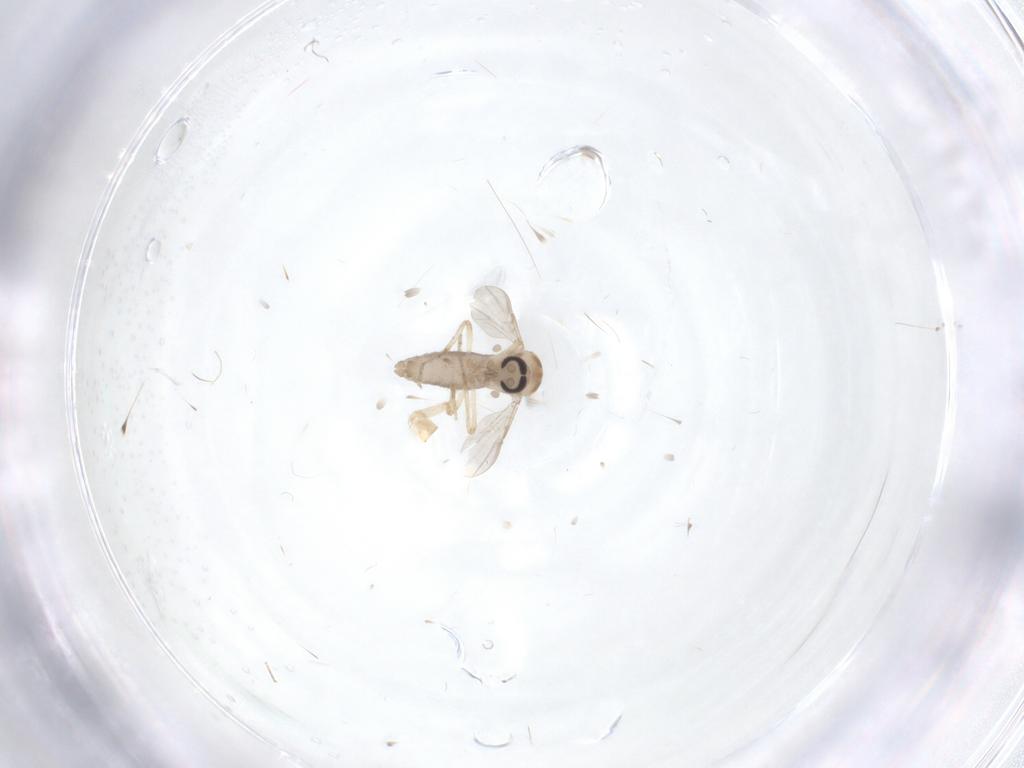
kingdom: Animalia
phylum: Arthropoda
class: Insecta
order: Diptera
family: Ceratopogonidae
